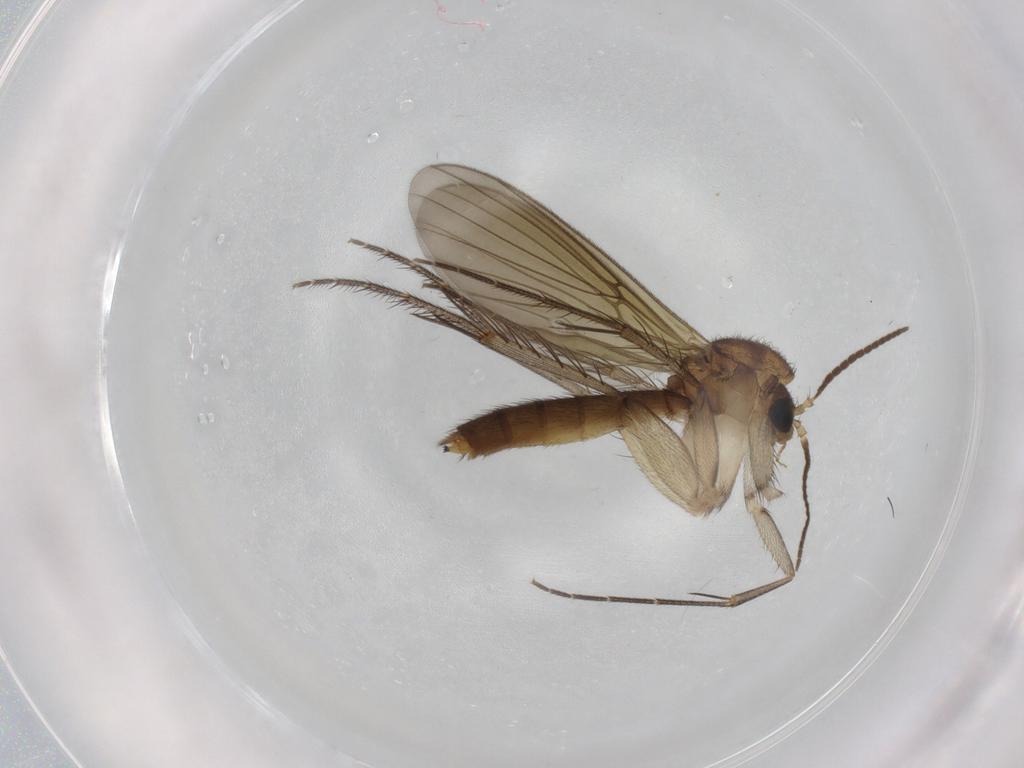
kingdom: Animalia
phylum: Arthropoda
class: Insecta
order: Diptera
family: Mycetophilidae
